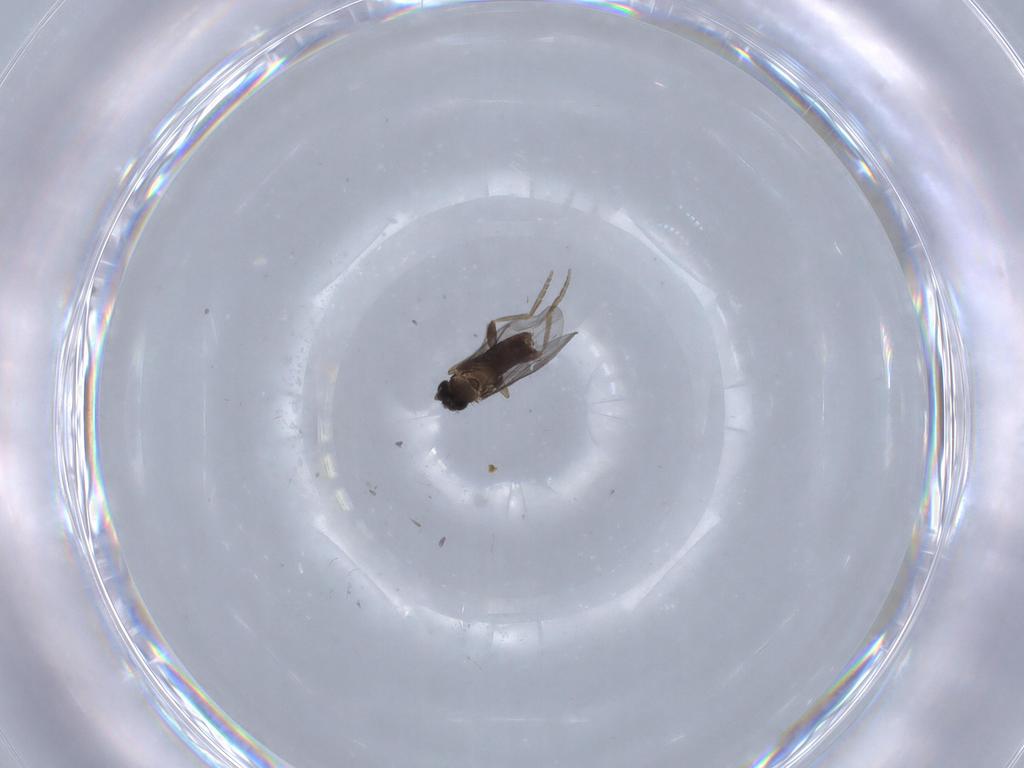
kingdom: Animalia
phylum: Arthropoda
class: Insecta
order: Diptera
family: Phoridae
